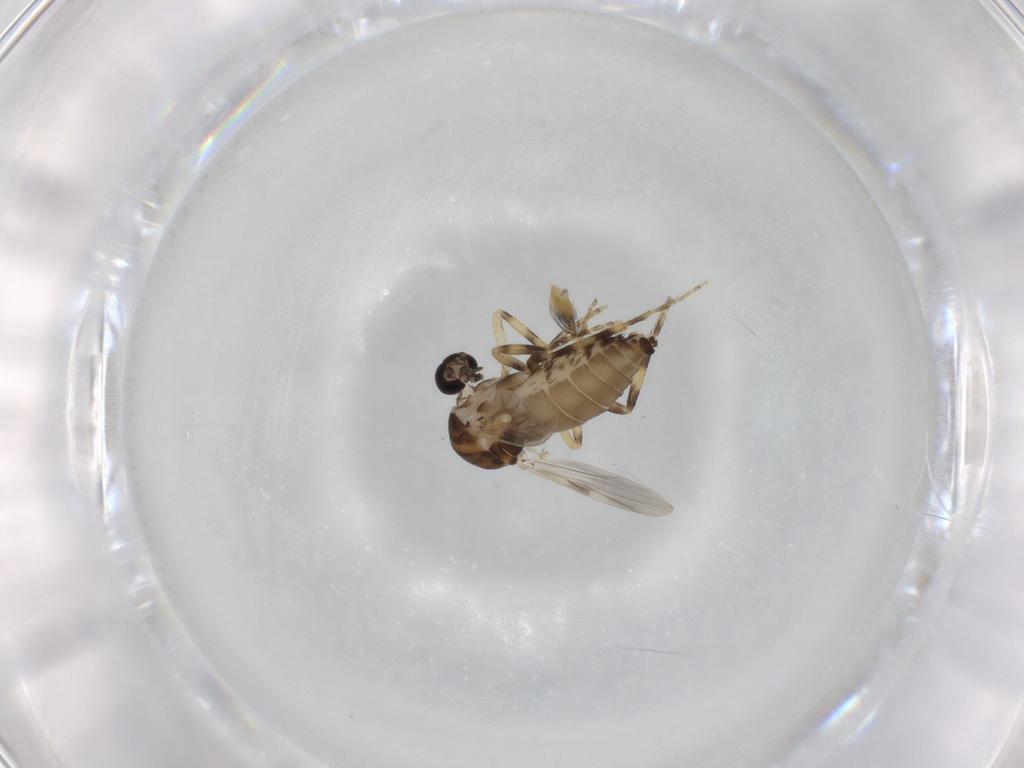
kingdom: Animalia
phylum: Arthropoda
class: Insecta
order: Diptera
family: Ceratopogonidae
